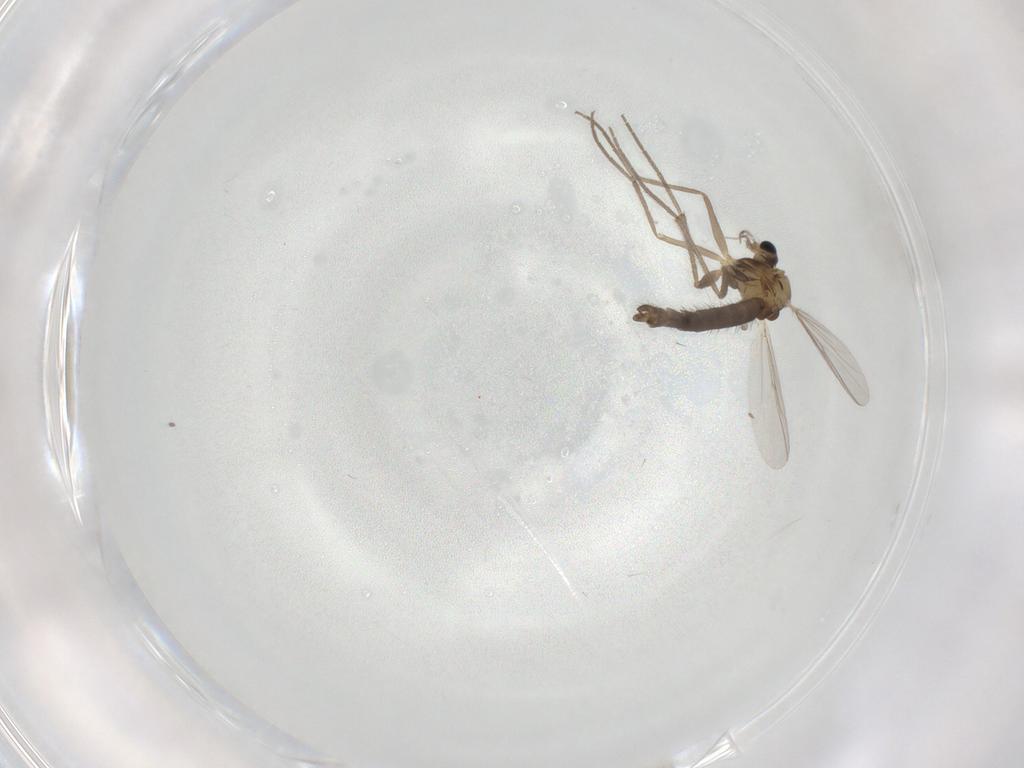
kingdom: Animalia
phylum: Arthropoda
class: Insecta
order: Diptera
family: Chironomidae
